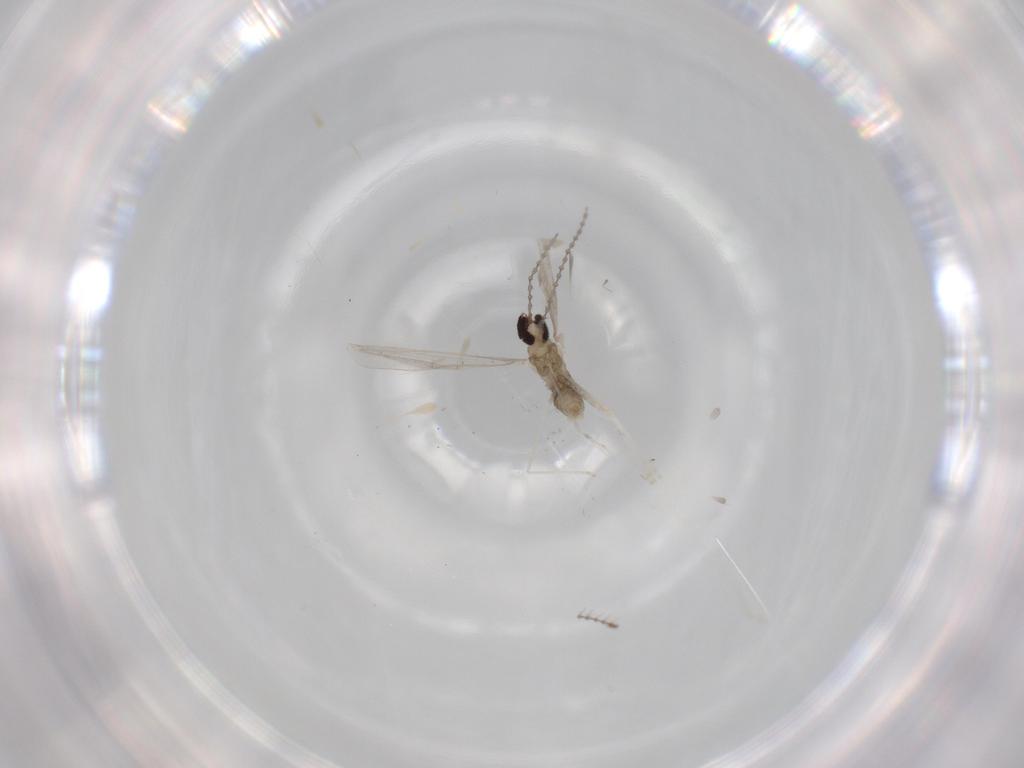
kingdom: Animalia
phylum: Arthropoda
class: Insecta
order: Diptera
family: Cecidomyiidae
